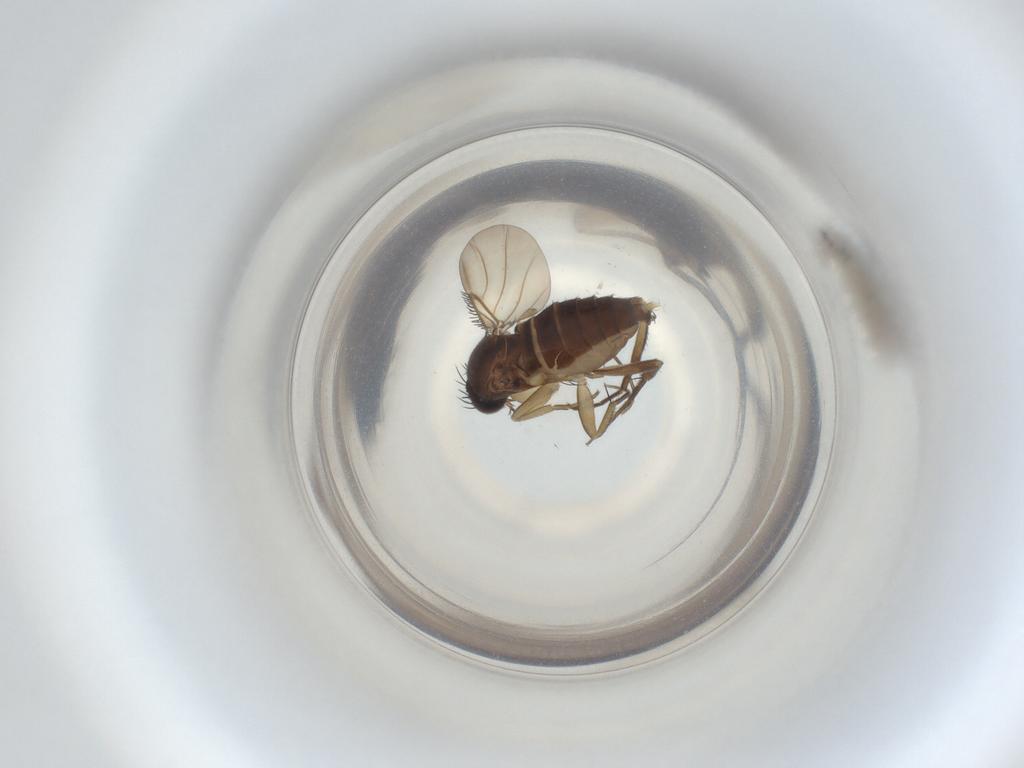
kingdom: Animalia
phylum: Arthropoda
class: Insecta
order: Diptera
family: Phoridae
